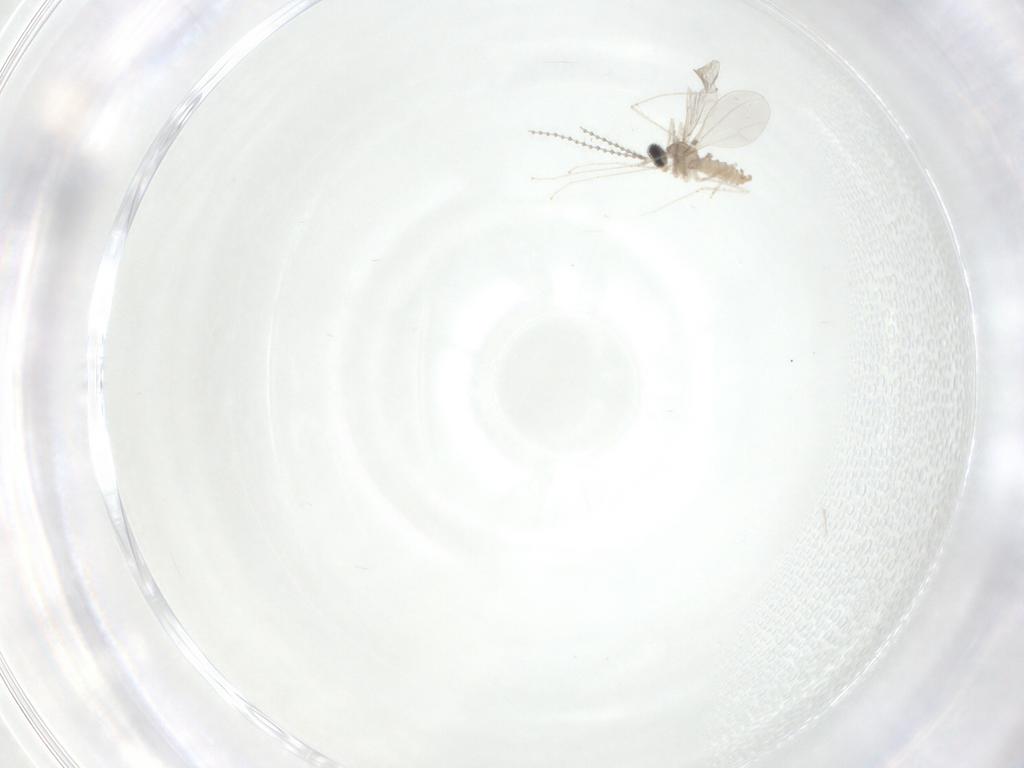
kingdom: Animalia
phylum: Arthropoda
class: Insecta
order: Diptera
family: Cecidomyiidae
